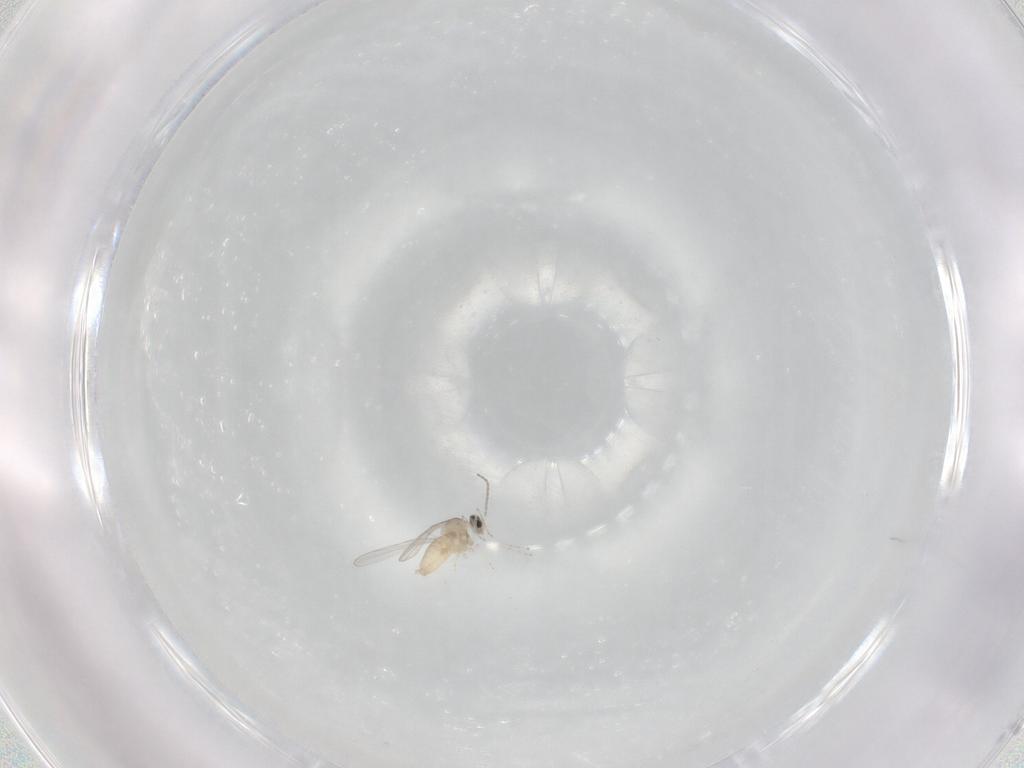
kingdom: Animalia
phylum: Arthropoda
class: Insecta
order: Diptera
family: Cecidomyiidae
